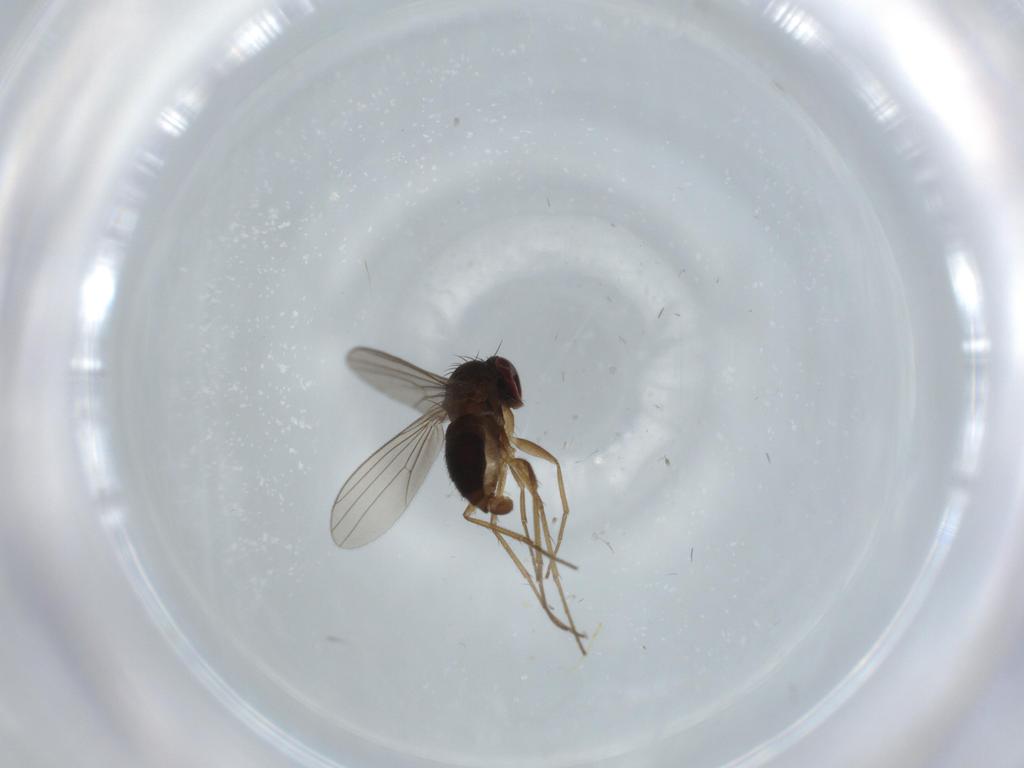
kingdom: Animalia
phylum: Arthropoda
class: Insecta
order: Diptera
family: Dolichopodidae
